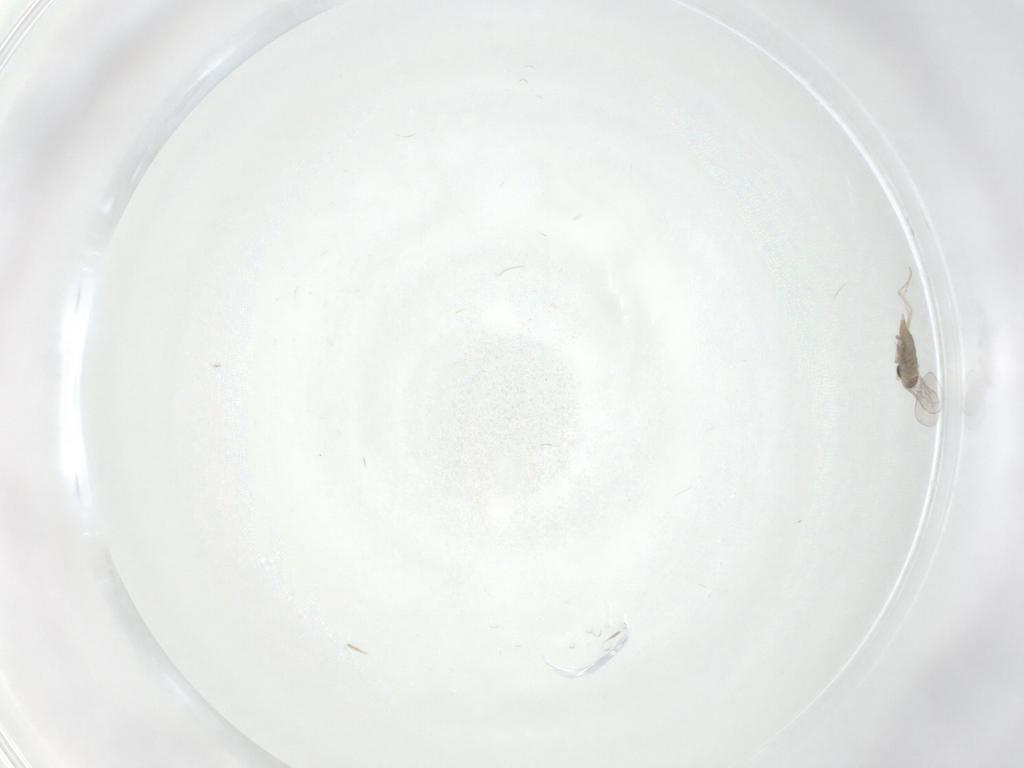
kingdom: Animalia
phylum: Arthropoda
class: Insecta
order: Diptera
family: Cecidomyiidae
